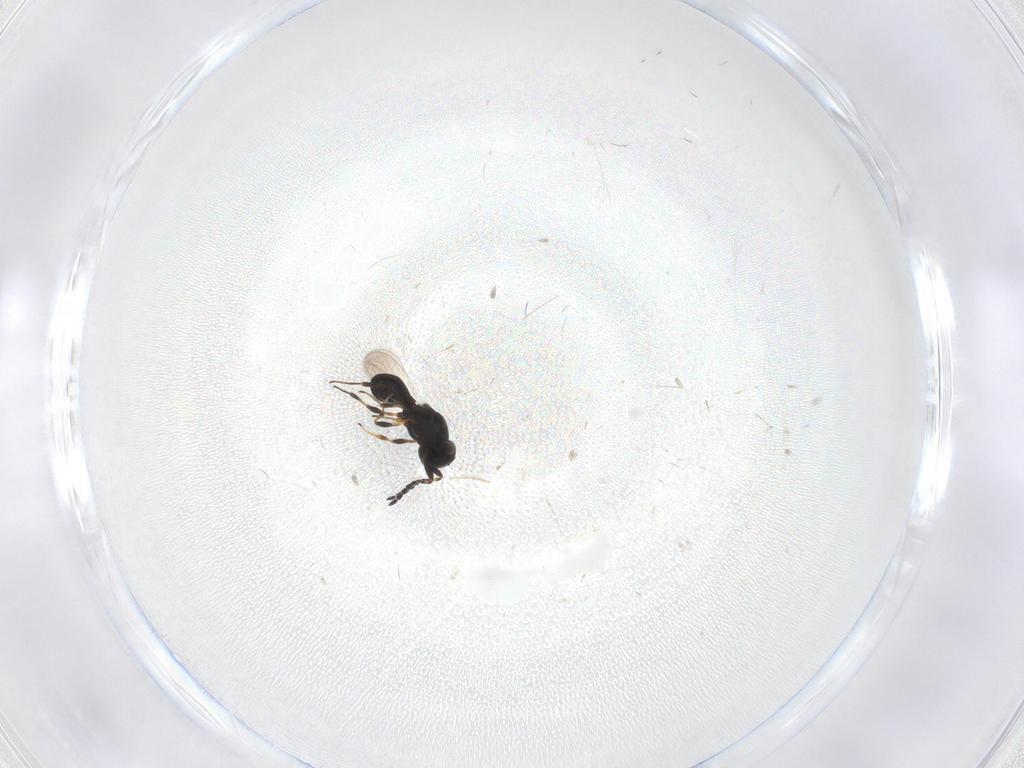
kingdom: Animalia
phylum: Arthropoda
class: Insecta
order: Hymenoptera
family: Platygastridae
